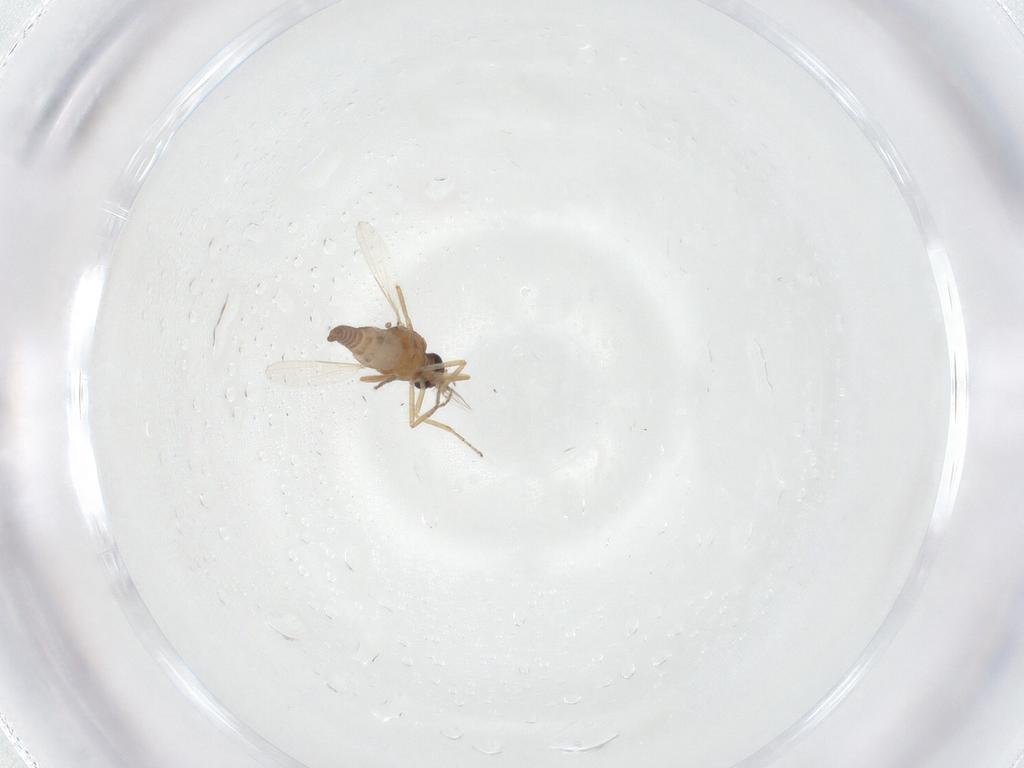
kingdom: Animalia
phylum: Arthropoda
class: Insecta
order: Diptera
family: Ceratopogonidae
